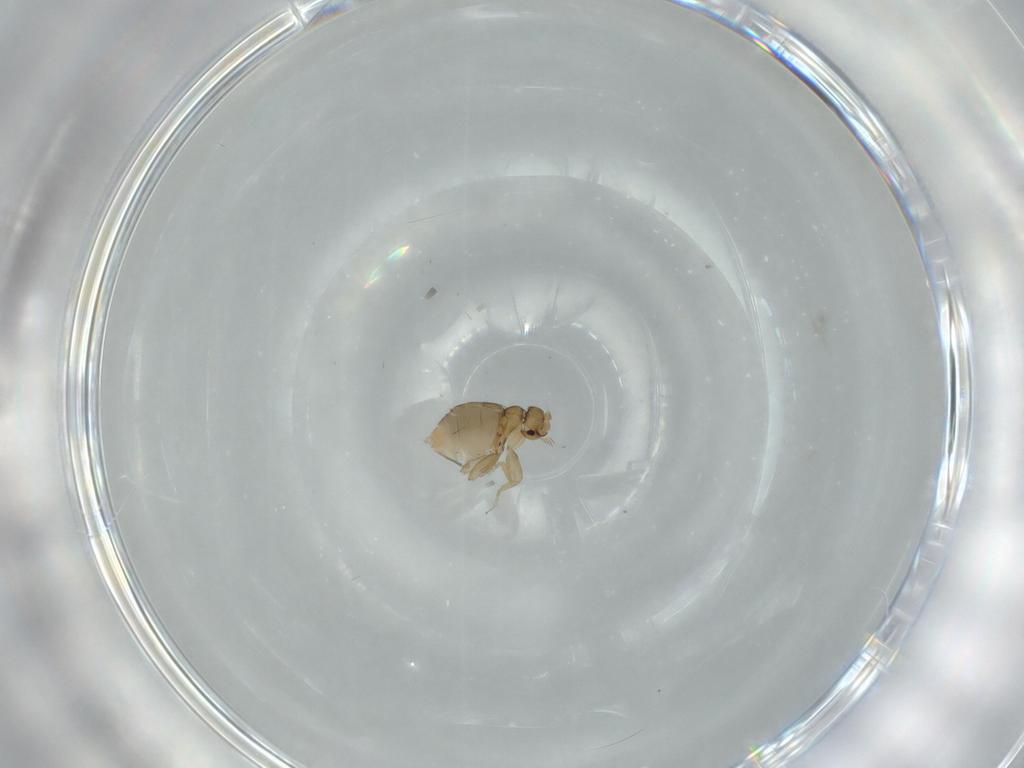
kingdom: Animalia
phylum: Arthropoda
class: Insecta
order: Diptera
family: Phoridae
